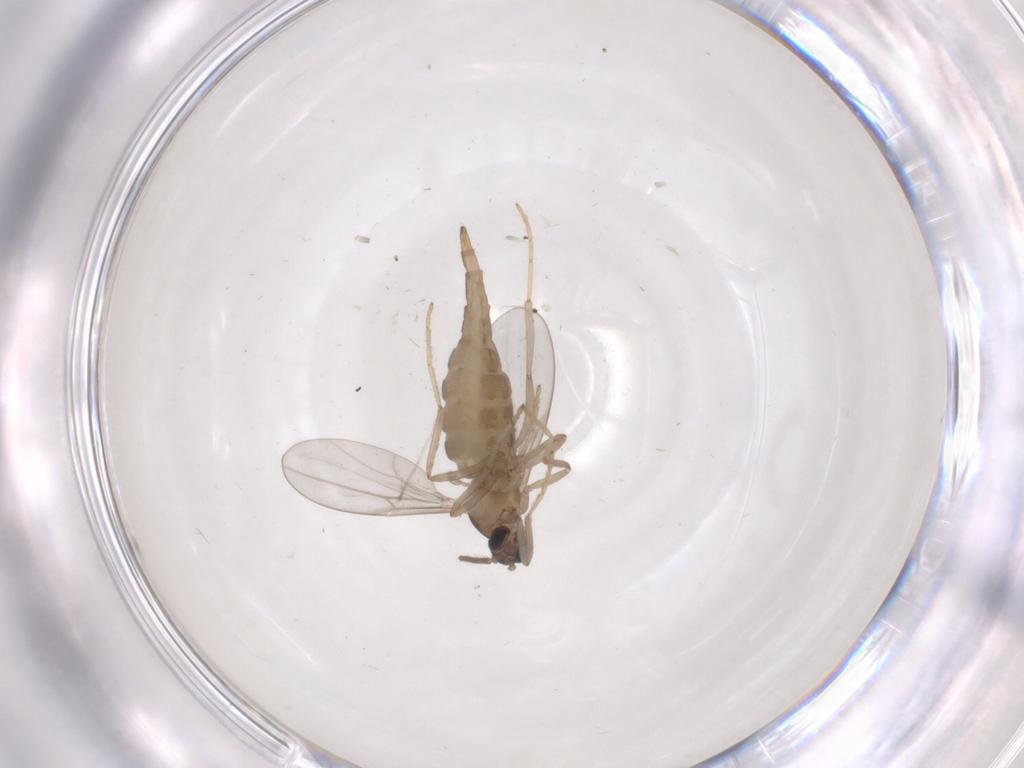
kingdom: Animalia
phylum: Arthropoda
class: Insecta
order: Diptera
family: Cecidomyiidae
